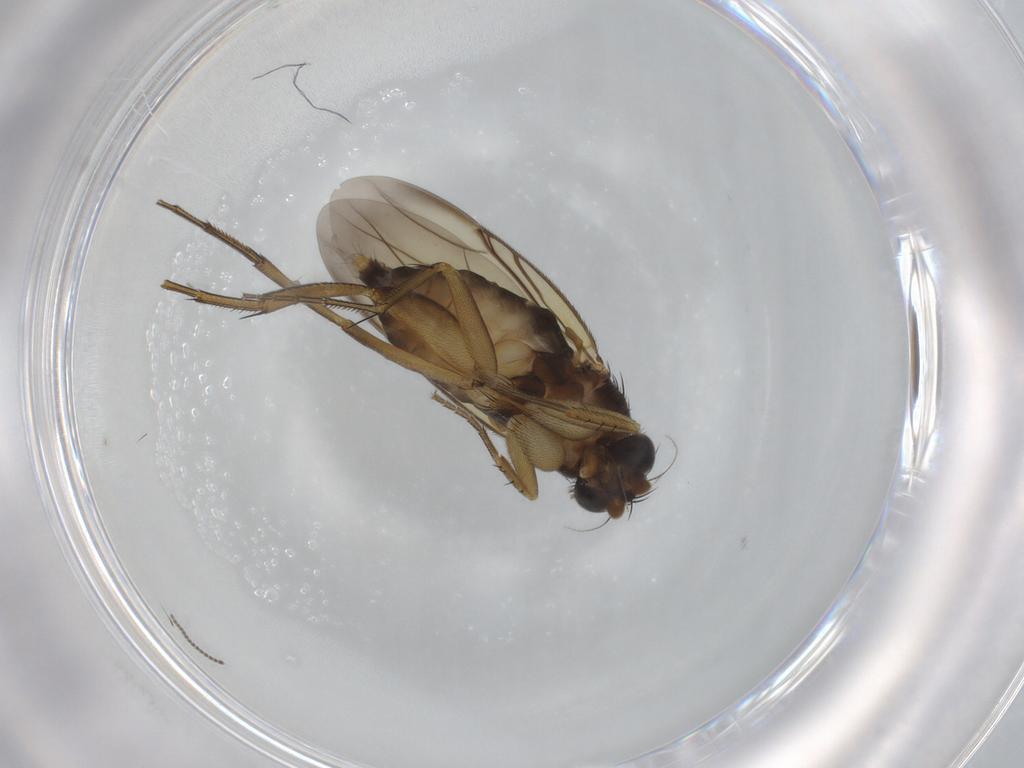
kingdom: Animalia
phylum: Arthropoda
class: Insecta
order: Diptera
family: Phoridae
